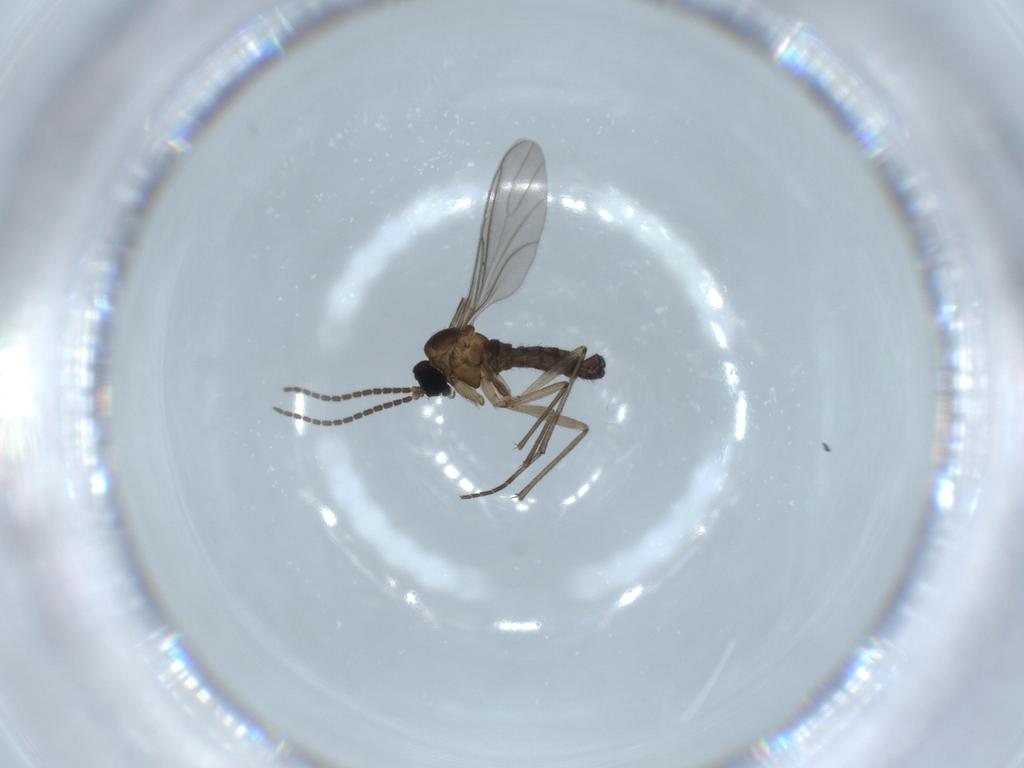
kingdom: Animalia
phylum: Arthropoda
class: Insecta
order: Diptera
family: Sciaridae
